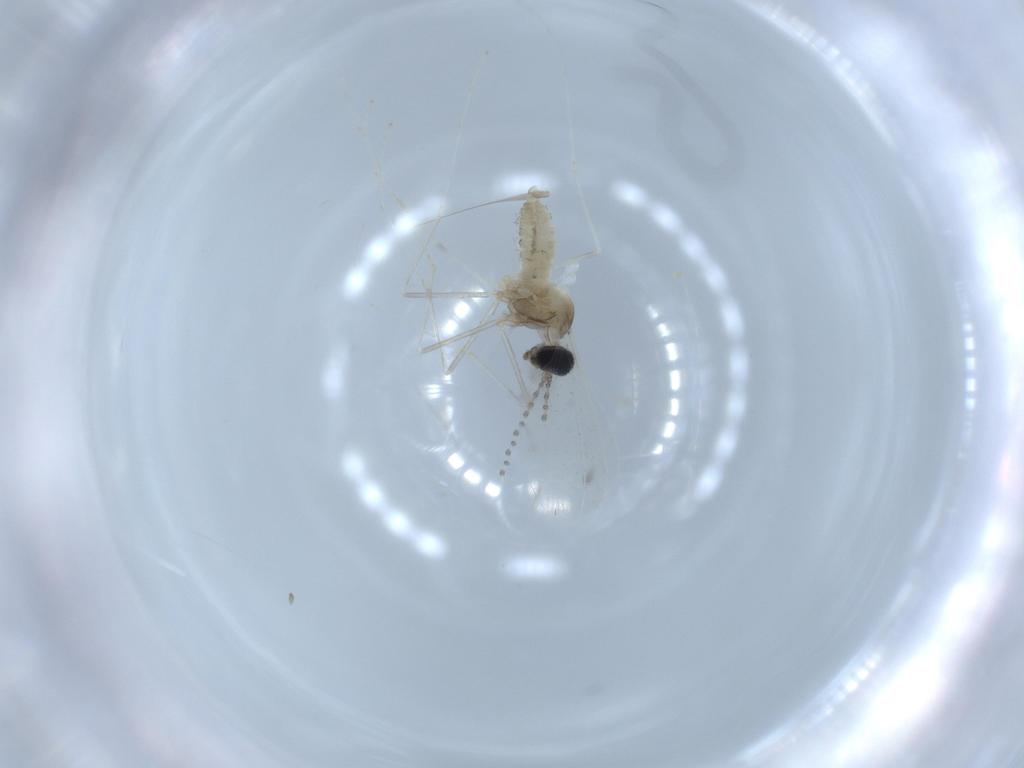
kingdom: Animalia
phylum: Arthropoda
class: Insecta
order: Diptera
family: Cecidomyiidae
